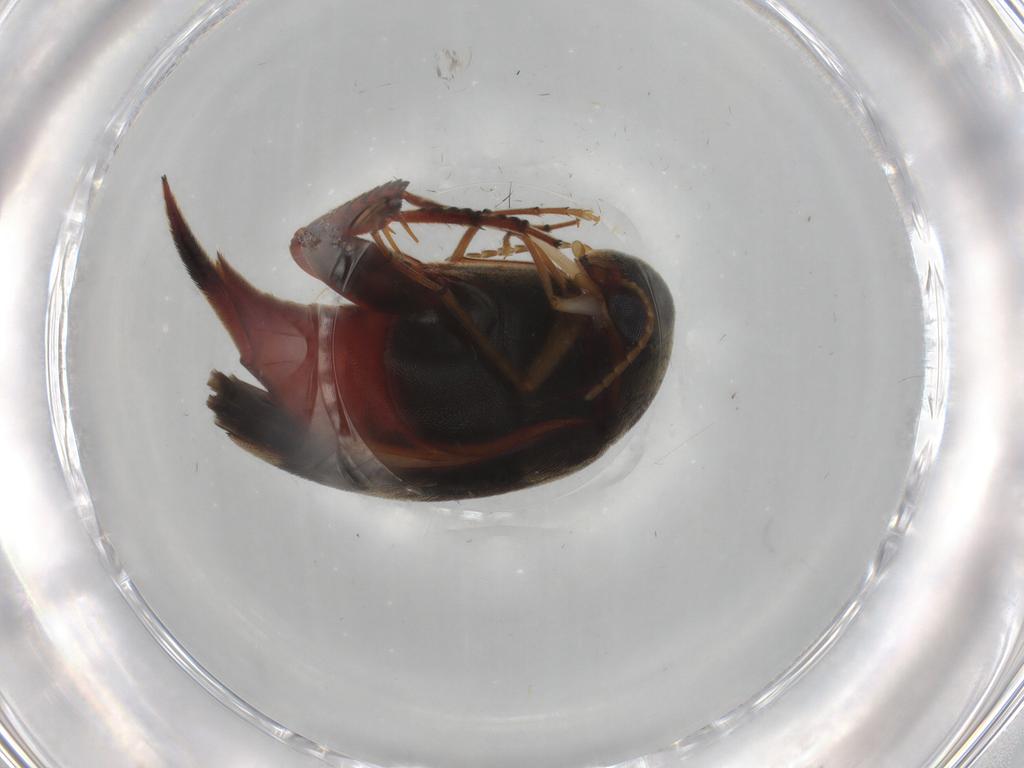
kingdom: Animalia
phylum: Arthropoda
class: Insecta
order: Coleoptera
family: Mordellidae
